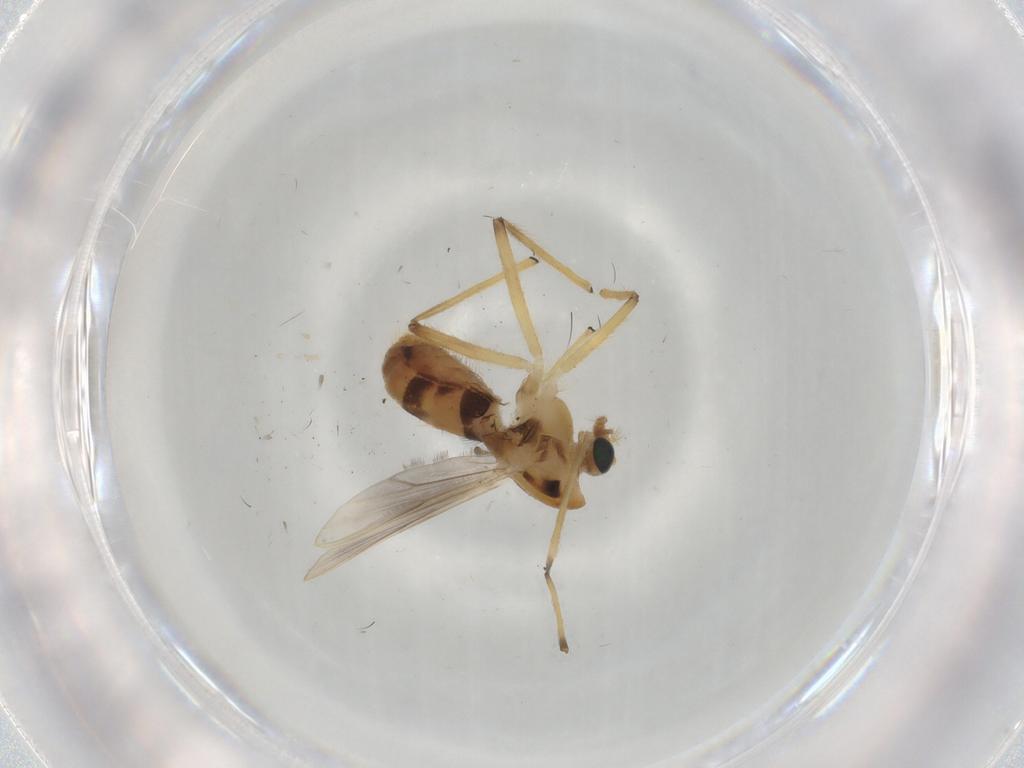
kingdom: Animalia
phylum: Arthropoda
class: Insecta
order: Diptera
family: Chironomidae
